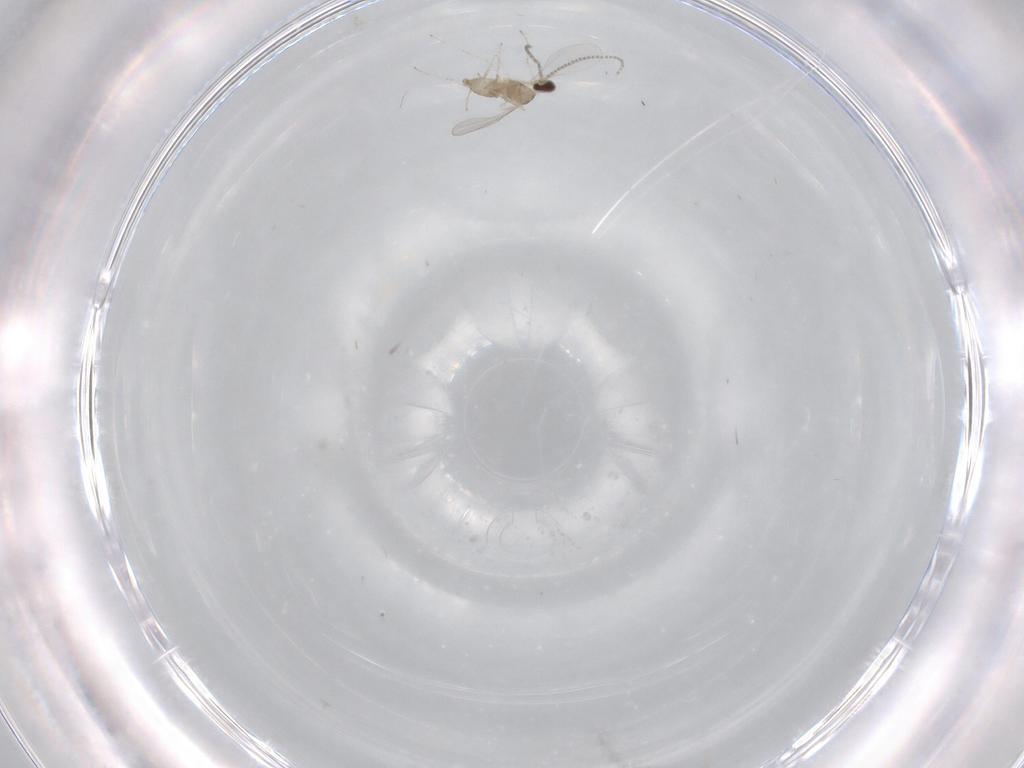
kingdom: Animalia
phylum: Arthropoda
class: Insecta
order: Diptera
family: Cecidomyiidae
